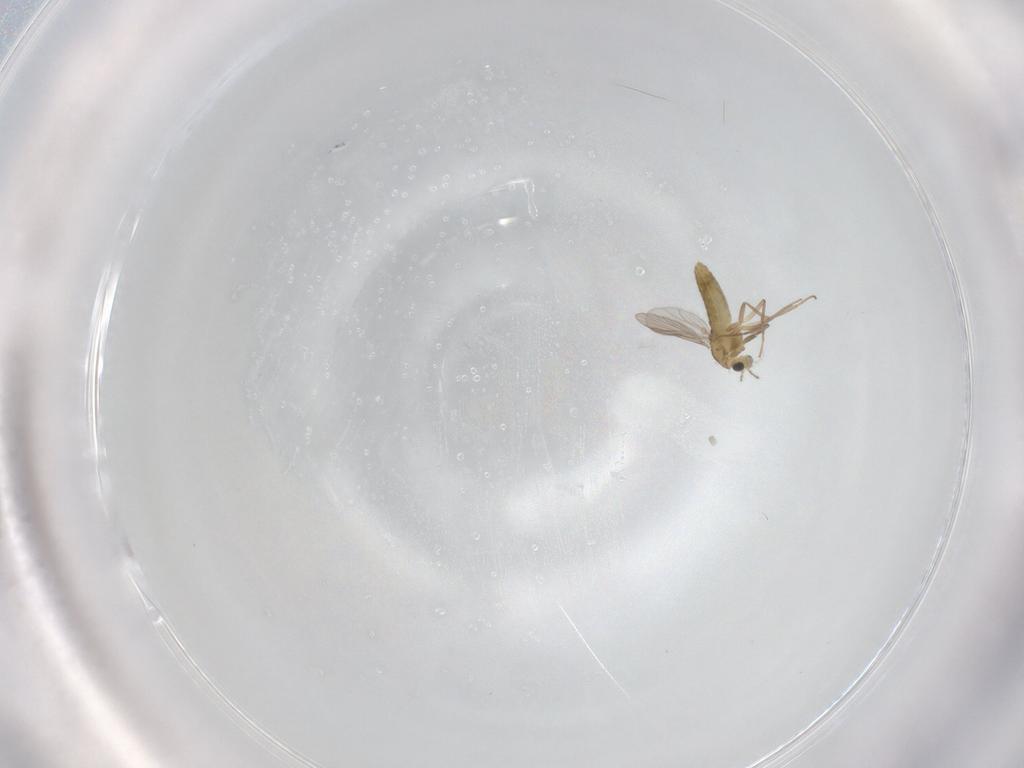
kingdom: Animalia
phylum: Arthropoda
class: Insecta
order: Diptera
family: Chironomidae
